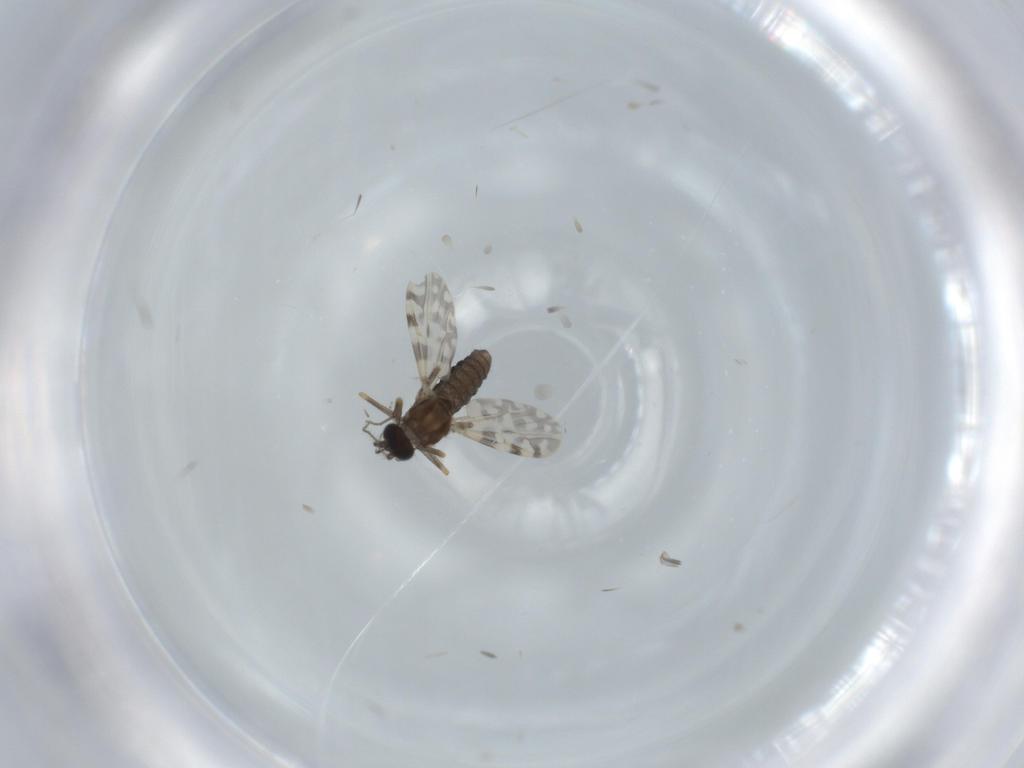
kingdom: Animalia
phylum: Arthropoda
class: Insecta
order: Diptera
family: Ceratopogonidae
